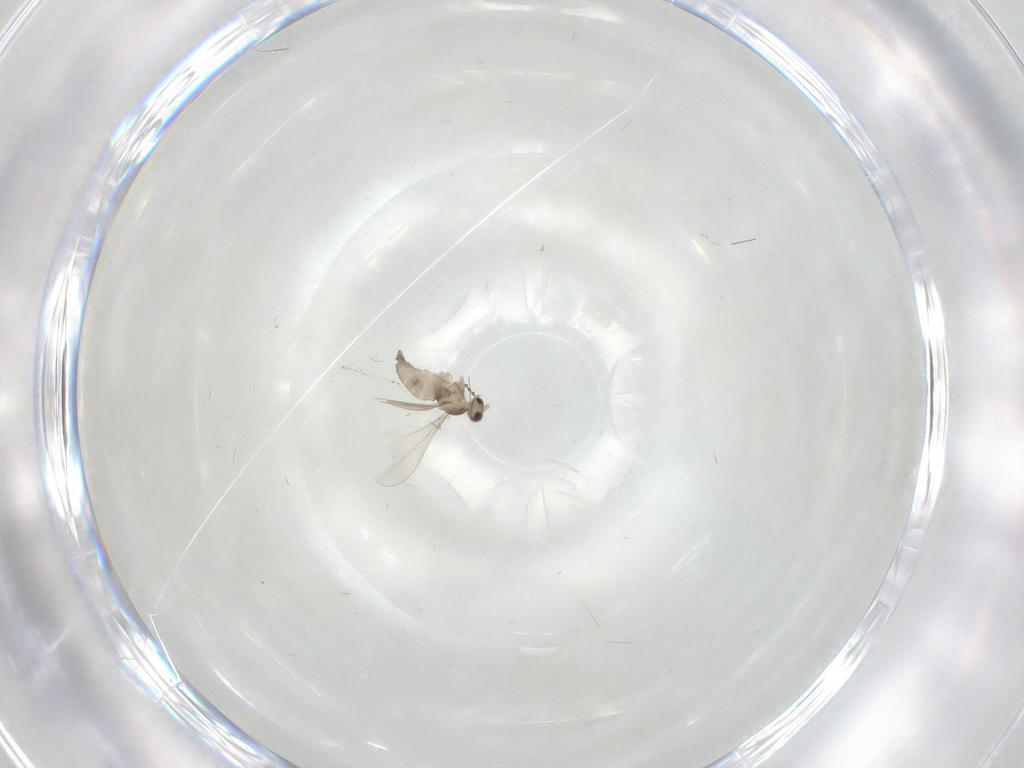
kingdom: Animalia
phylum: Arthropoda
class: Insecta
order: Diptera
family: Cecidomyiidae
